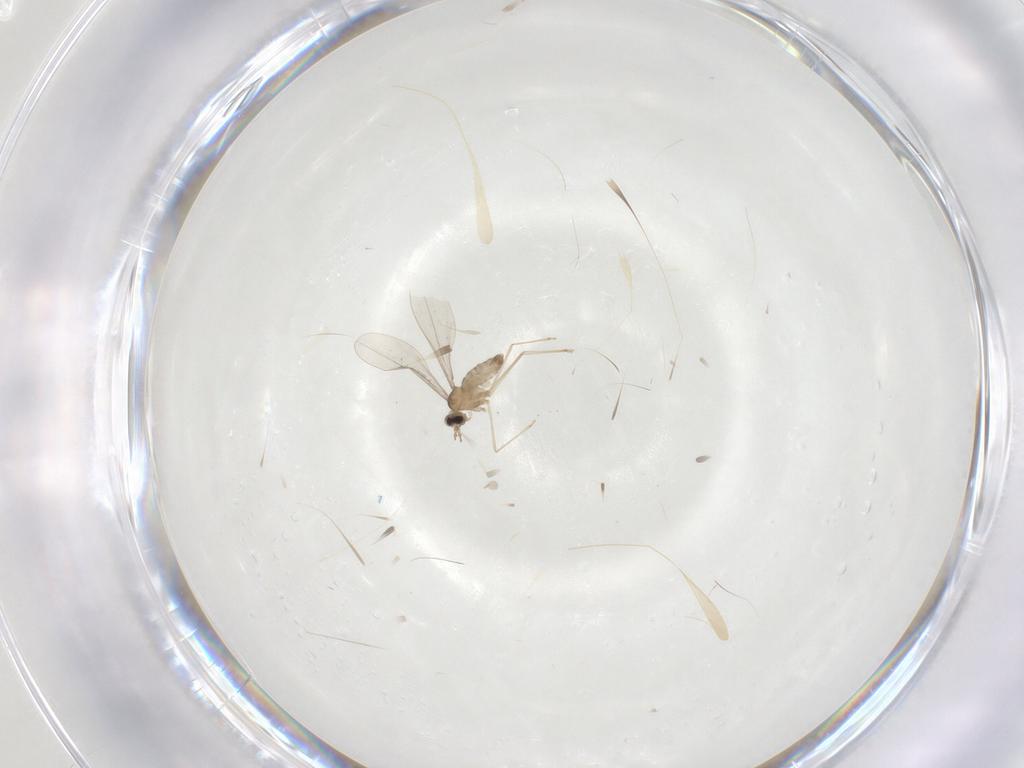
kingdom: Animalia
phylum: Arthropoda
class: Insecta
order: Diptera
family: Cecidomyiidae
